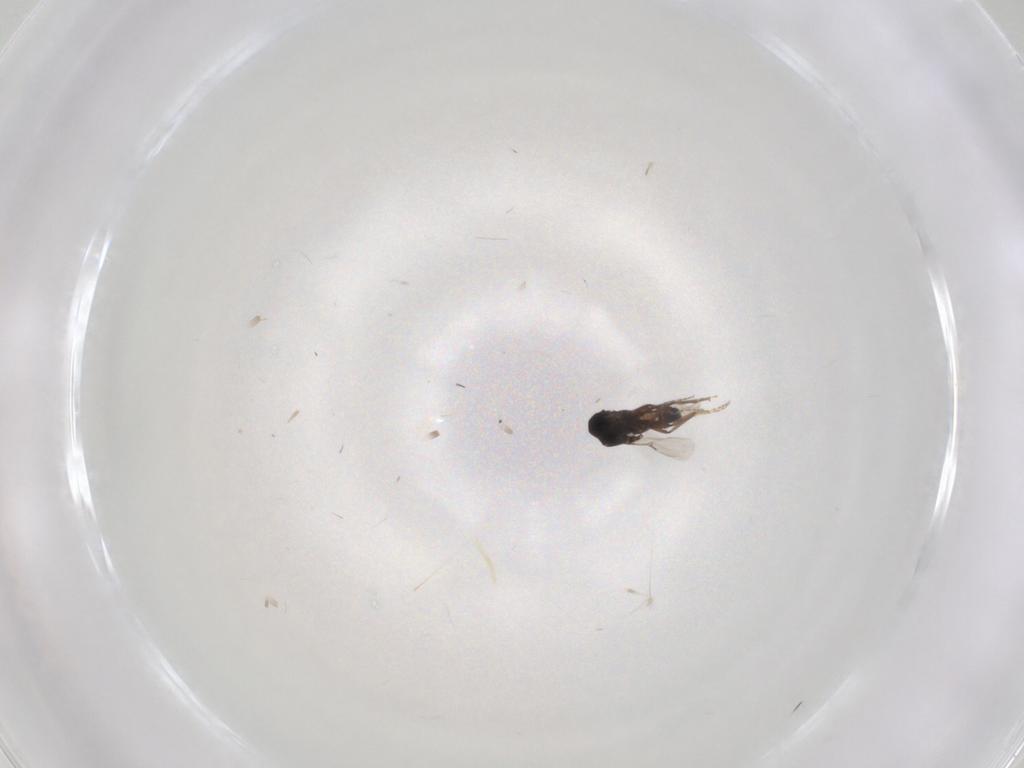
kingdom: Animalia
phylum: Arthropoda
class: Insecta
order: Diptera
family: Ceratopogonidae
